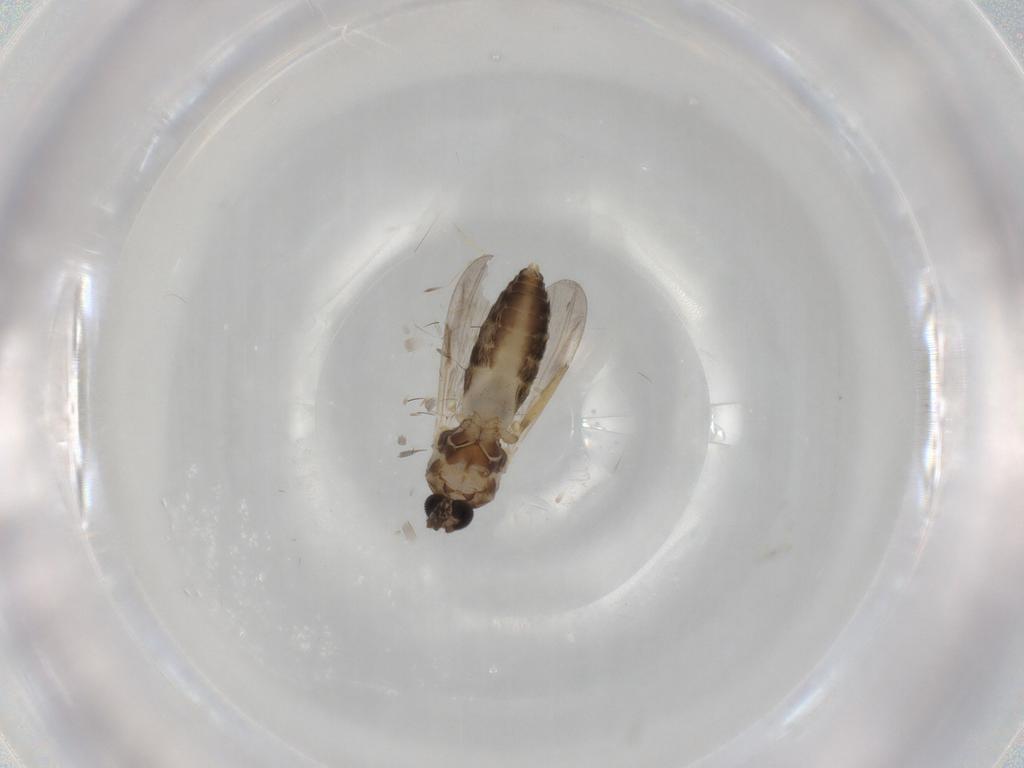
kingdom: Animalia
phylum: Arthropoda
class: Insecta
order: Diptera
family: Ceratopogonidae
